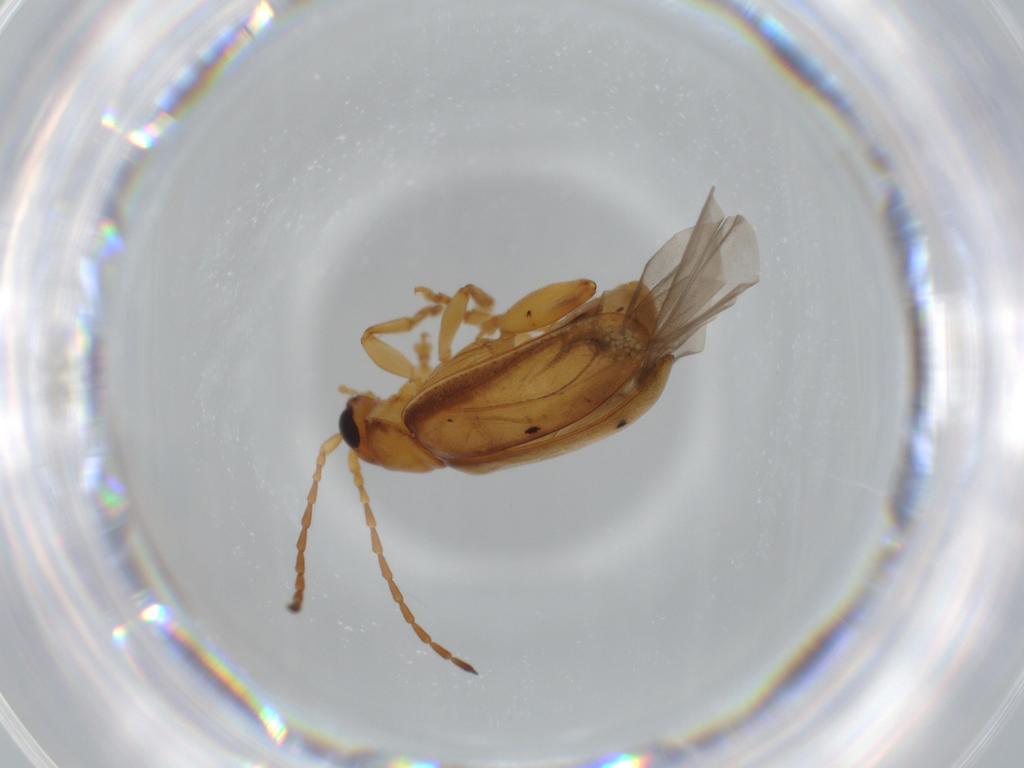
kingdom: Animalia
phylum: Arthropoda
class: Insecta
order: Coleoptera
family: Chrysomelidae
